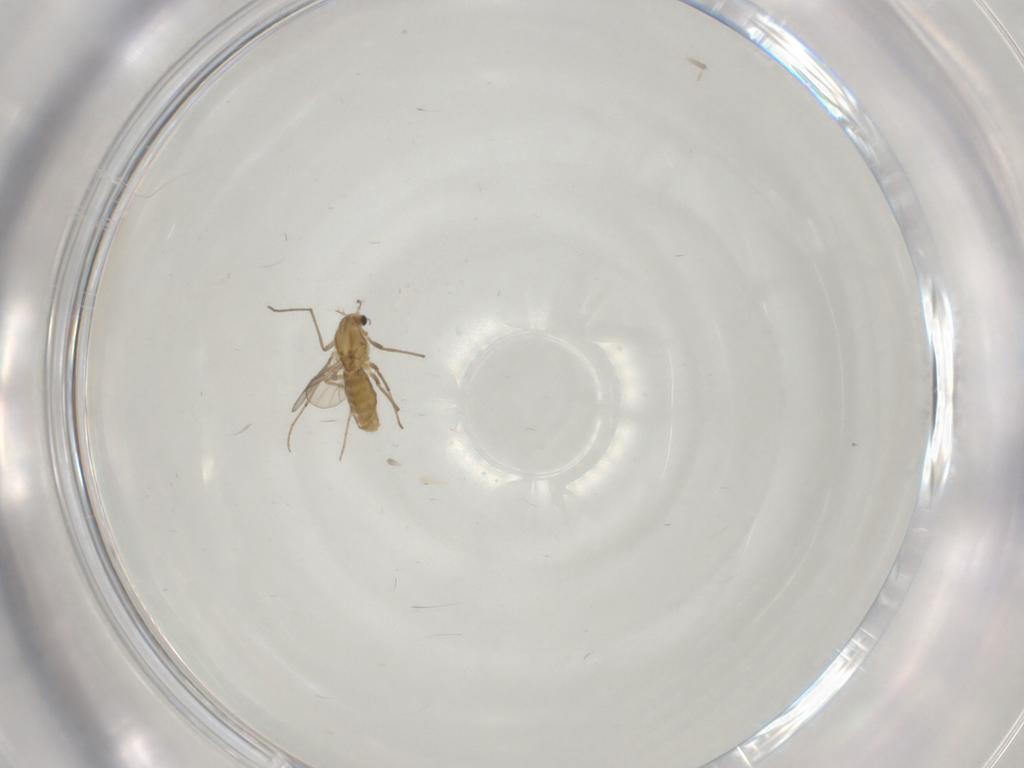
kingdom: Animalia
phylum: Arthropoda
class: Insecta
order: Diptera
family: Chironomidae
